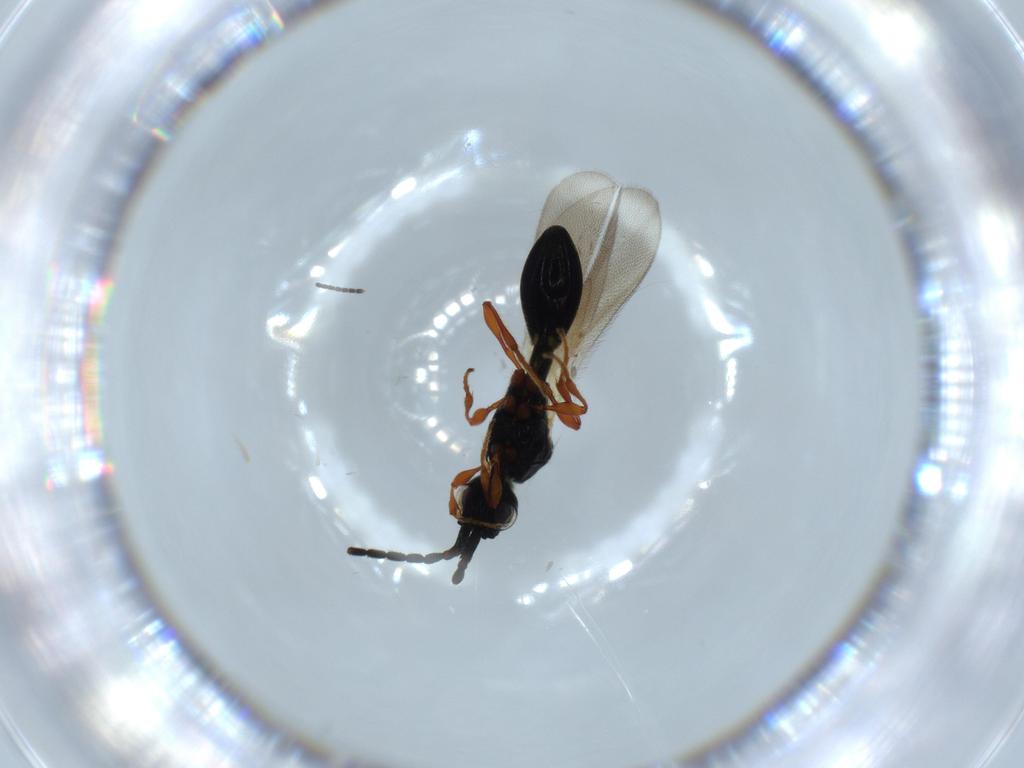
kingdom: Animalia
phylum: Arthropoda
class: Insecta
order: Hymenoptera
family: Diapriidae
